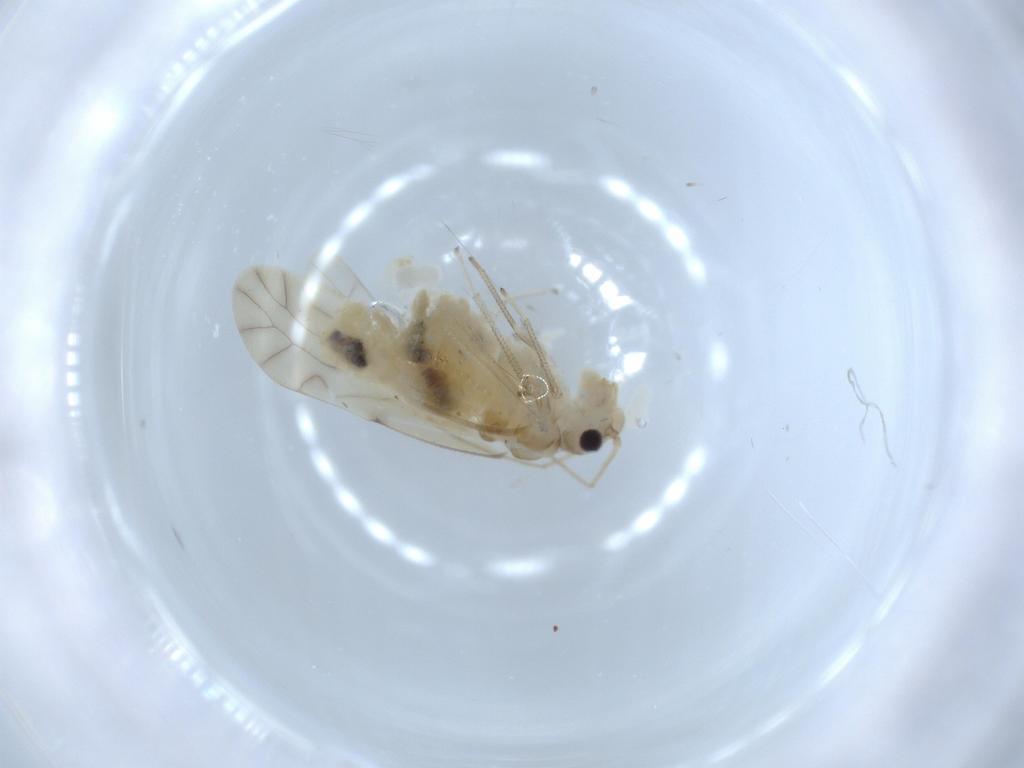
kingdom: Animalia
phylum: Arthropoda
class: Insecta
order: Psocodea
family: Caeciliusidae
